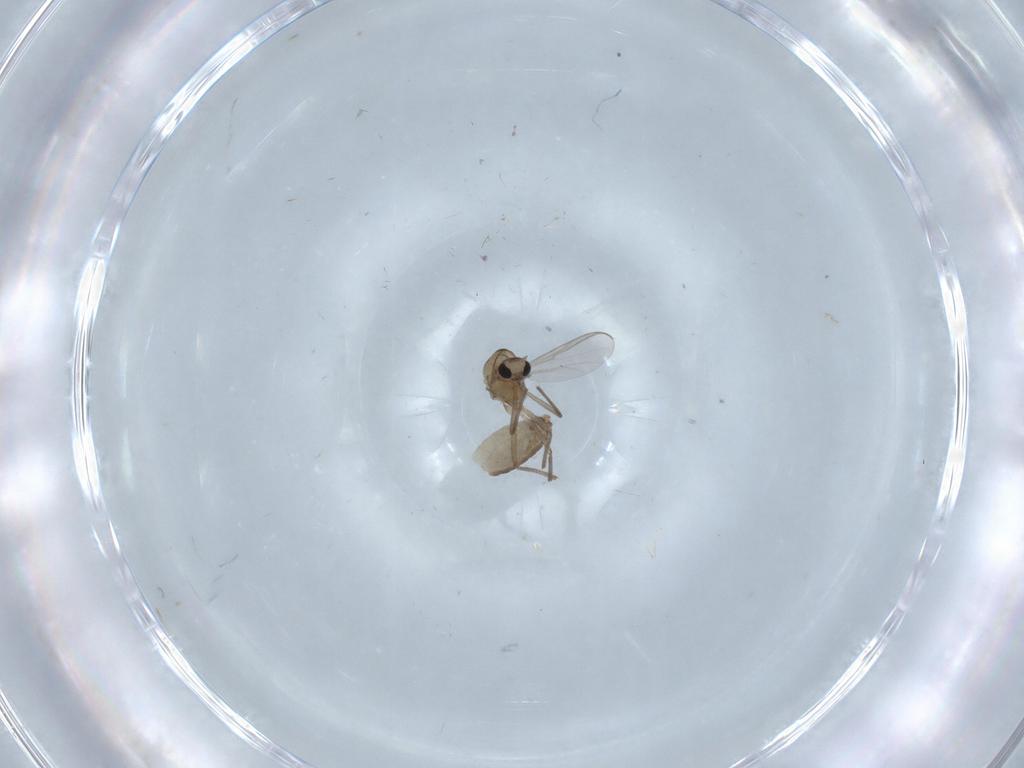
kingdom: Animalia
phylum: Arthropoda
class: Insecta
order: Diptera
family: Chironomidae
